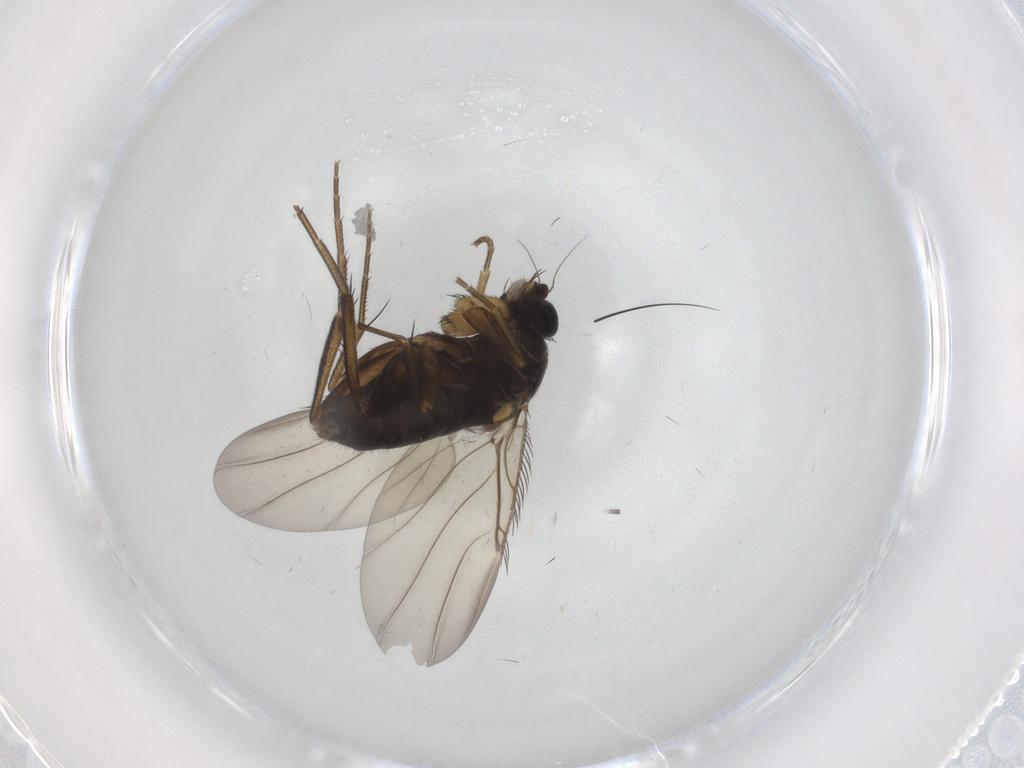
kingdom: Animalia
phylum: Arthropoda
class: Insecta
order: Diptera
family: Phoridae
